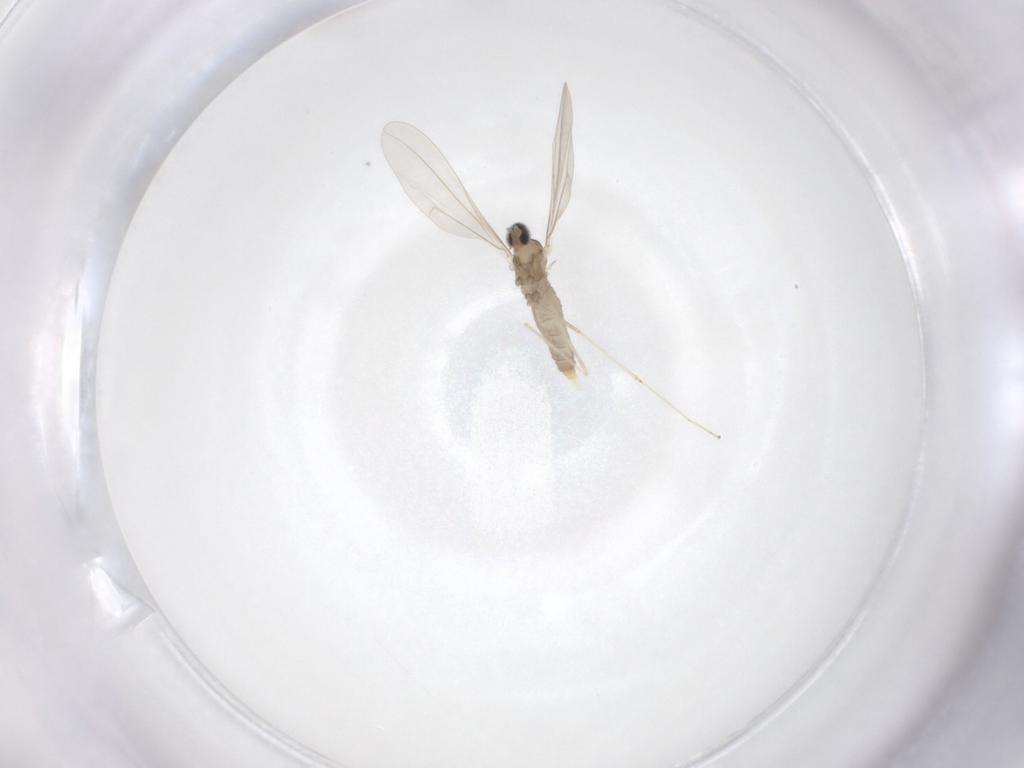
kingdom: Animalia
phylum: Arthropoda
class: Insecta
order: Diptera
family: Cecidomyiidae
